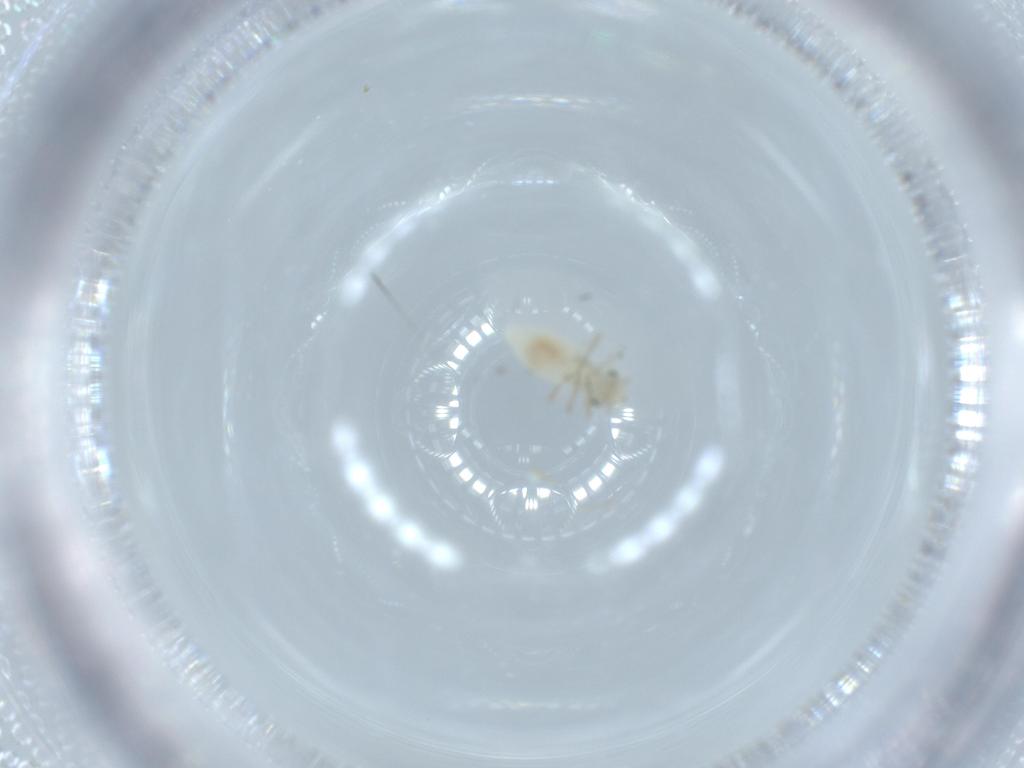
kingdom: Animalia
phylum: Arthropoda
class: Insecta
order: Psocodea
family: Caeciliusidae
